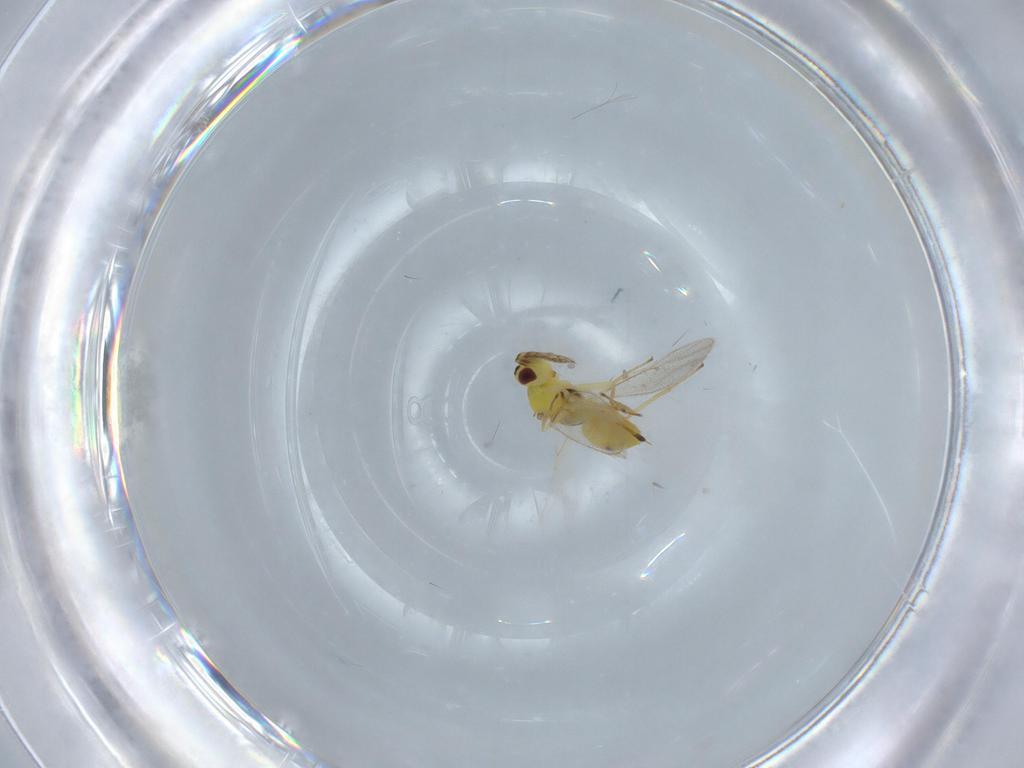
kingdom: Animalia
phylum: Arthropoda
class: Insecta
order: Hymenoptera
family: Eulophidae
